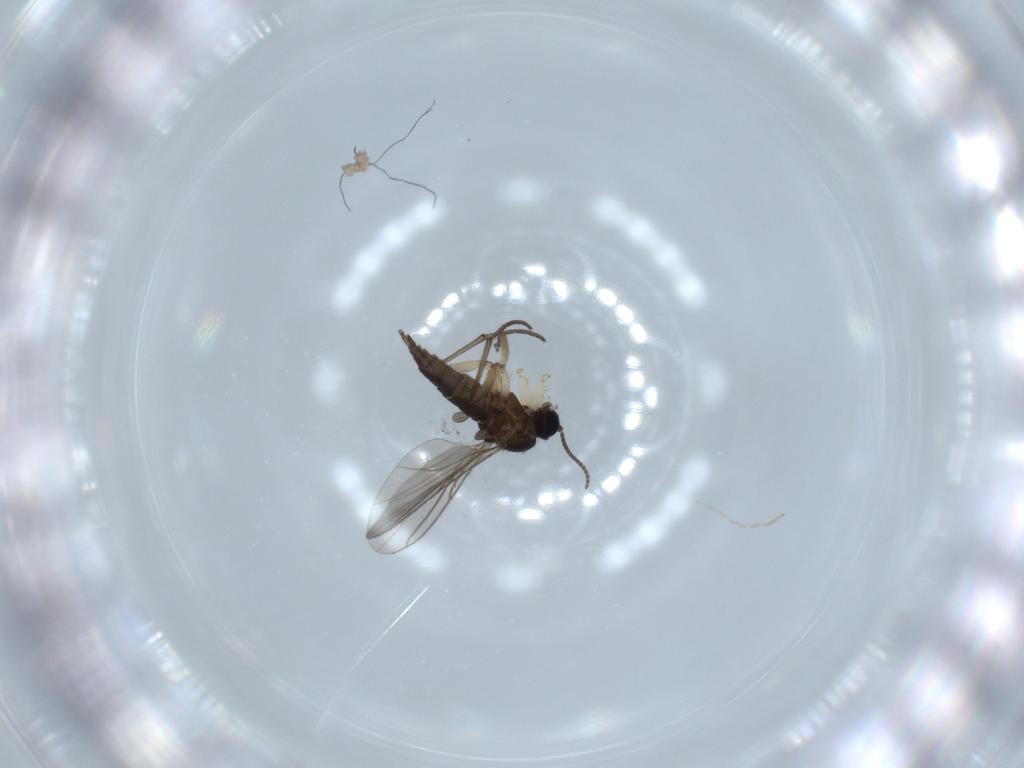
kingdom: Animalia
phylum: Arthropoda
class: Insecta
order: Diptera
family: Sciaridae
